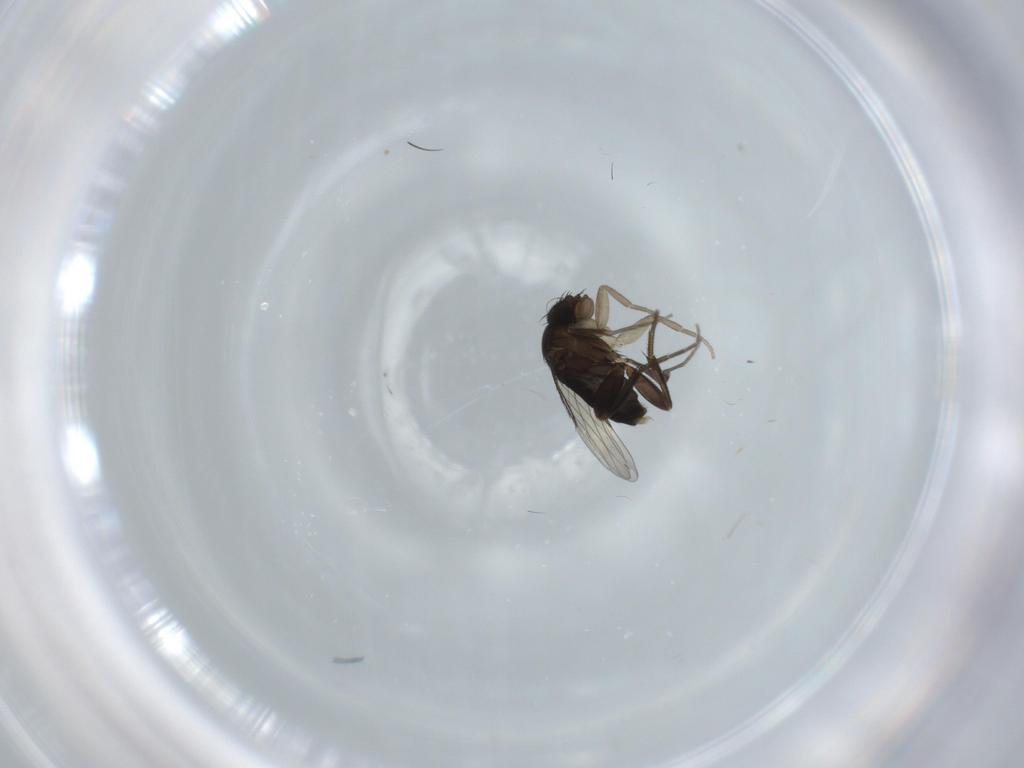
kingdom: Animalia
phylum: Arthropoda
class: Insecta
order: Diptera
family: Phoridae
